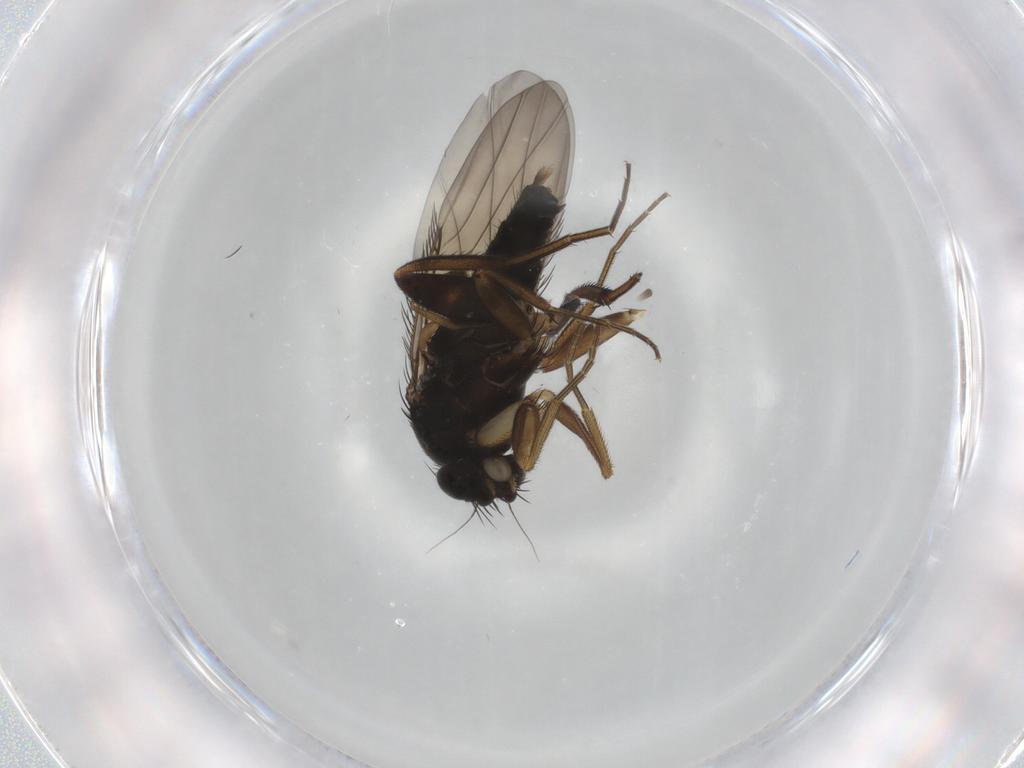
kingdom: Animalia
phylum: Arthropoda
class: Insecta
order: Diptera
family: Phoridae
